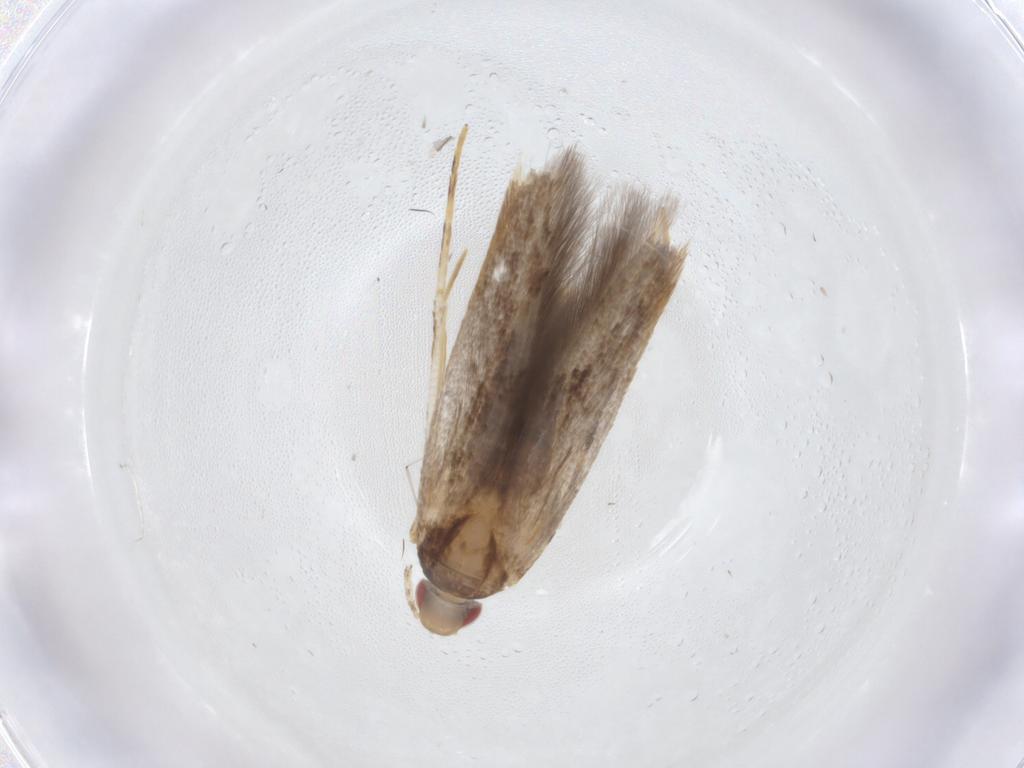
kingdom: Animalia
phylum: Arthropoda
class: Insecta
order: Lepidoptera
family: Cosmopterigidae
